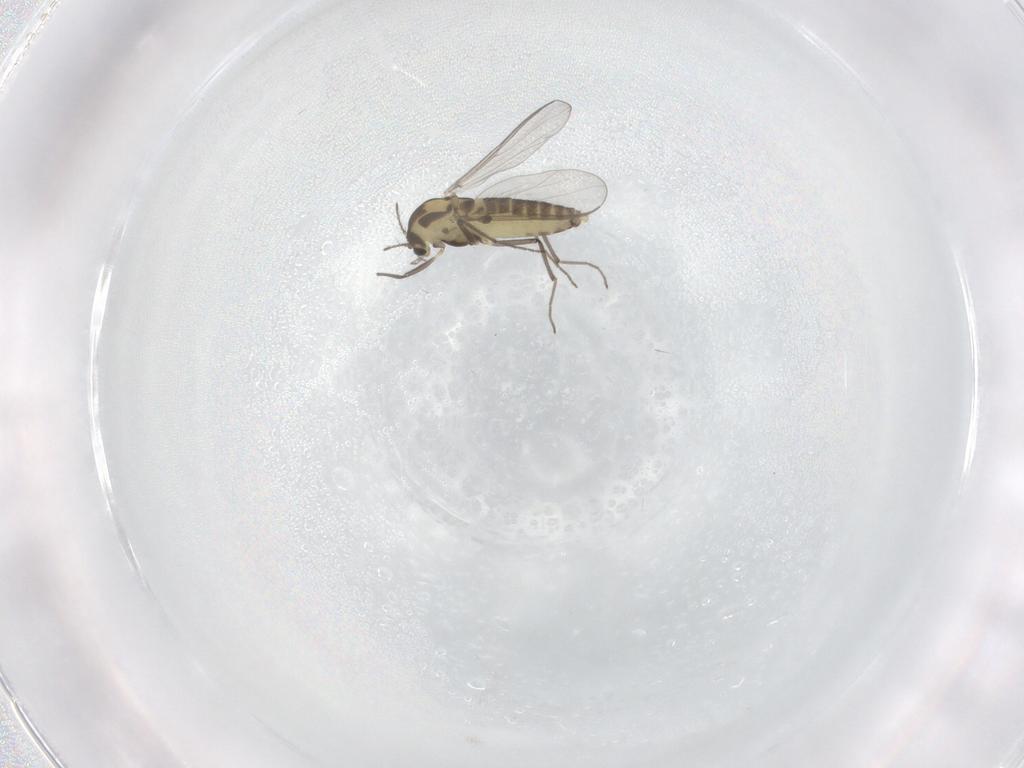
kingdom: Animalia
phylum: Arthropoda
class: Insecta
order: Diptera
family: Chironomidae
